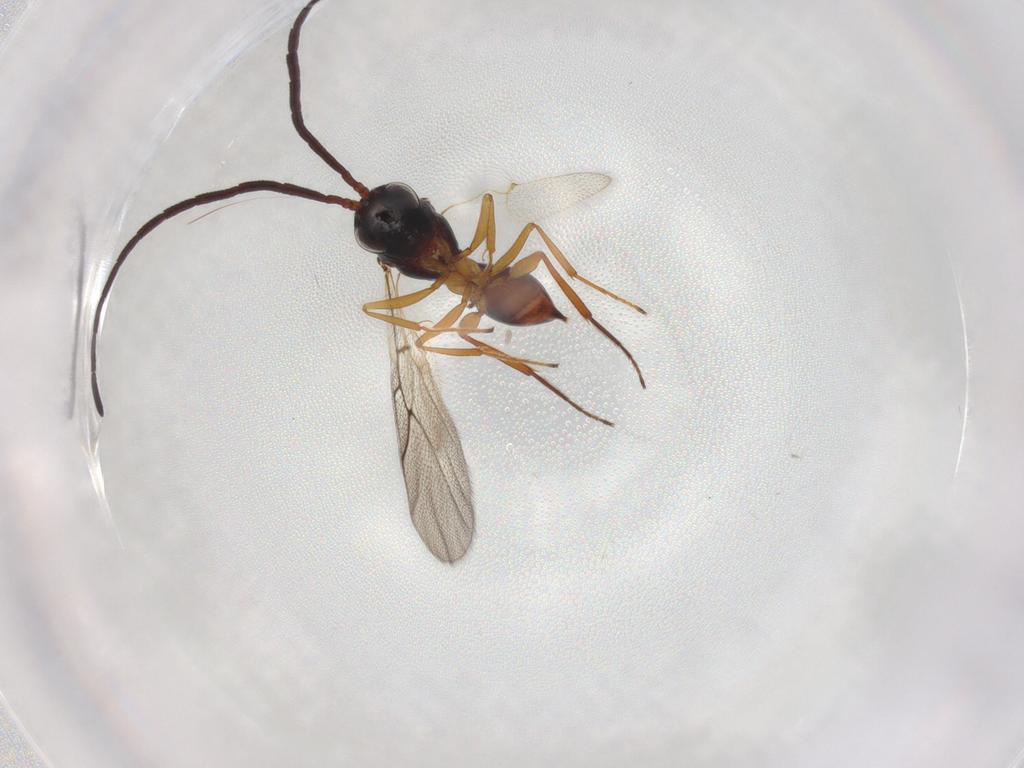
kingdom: Animalia
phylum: Arthropoda
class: Insecta
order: Hymenoptera
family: Figitidae
